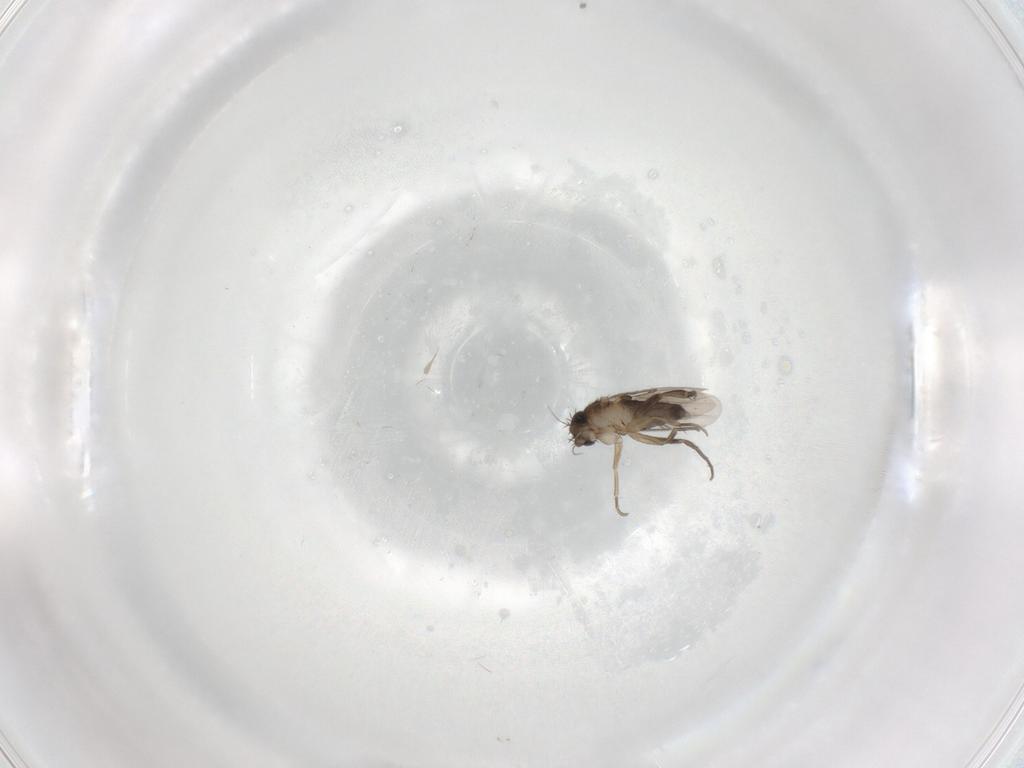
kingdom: Animalia
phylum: Arthropoda
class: Insecta
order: Diptera
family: Phoridae
